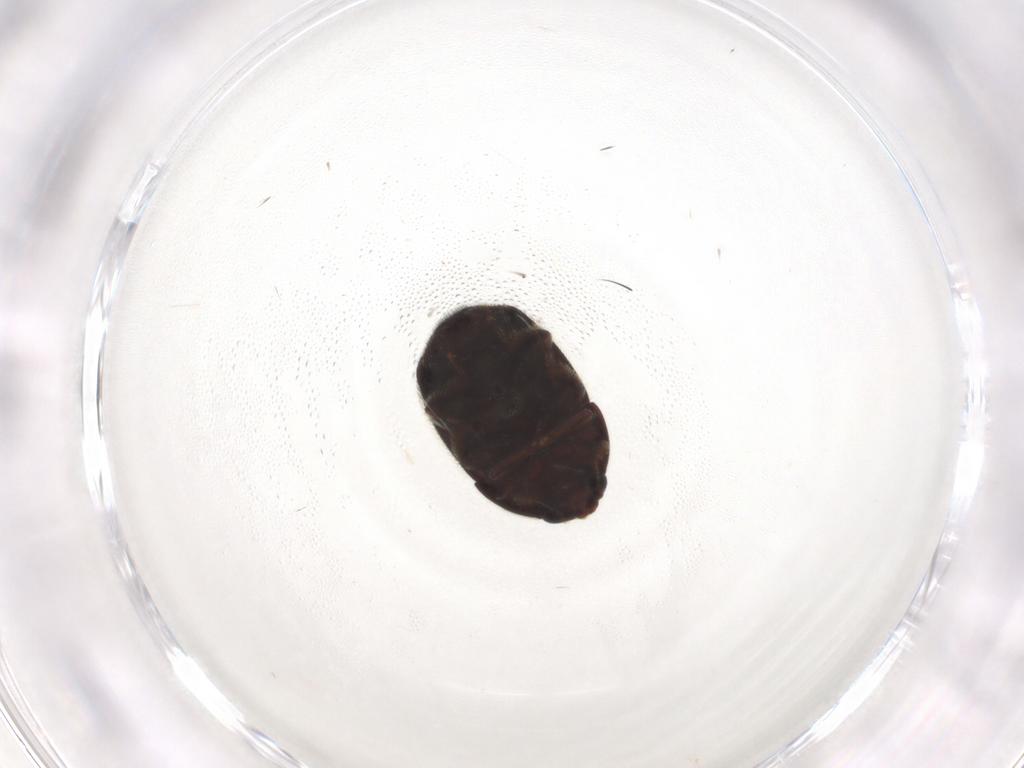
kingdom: Animalia
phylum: Arthropoda
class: Insecta
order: Coleoptera
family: Nitidulidae
